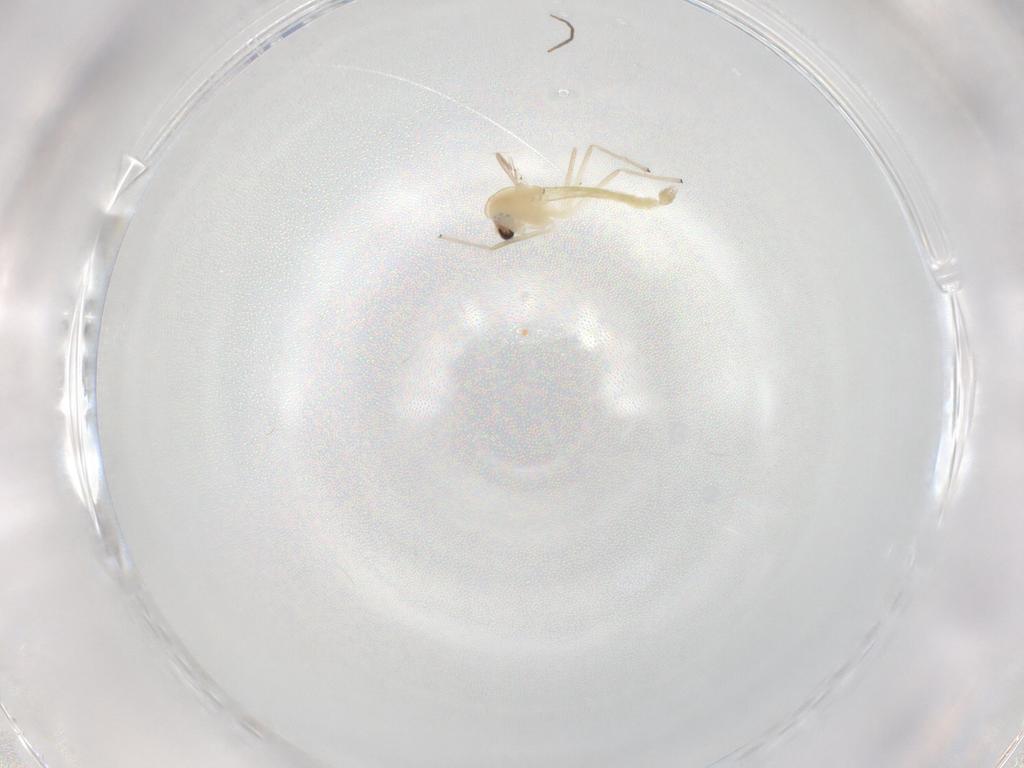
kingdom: Animalia
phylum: Arthropoda
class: Insecta
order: Diptera
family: Chironomidae
